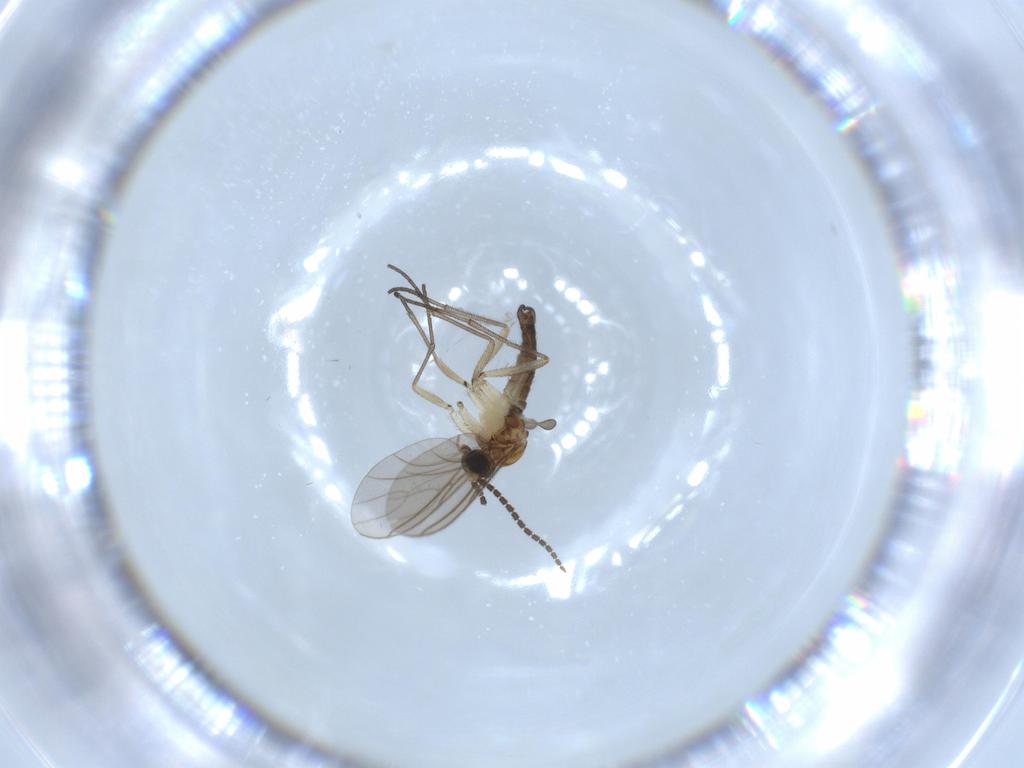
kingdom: Animalia
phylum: Arthropoda
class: Insecta
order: Diptera
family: Sciaridae
